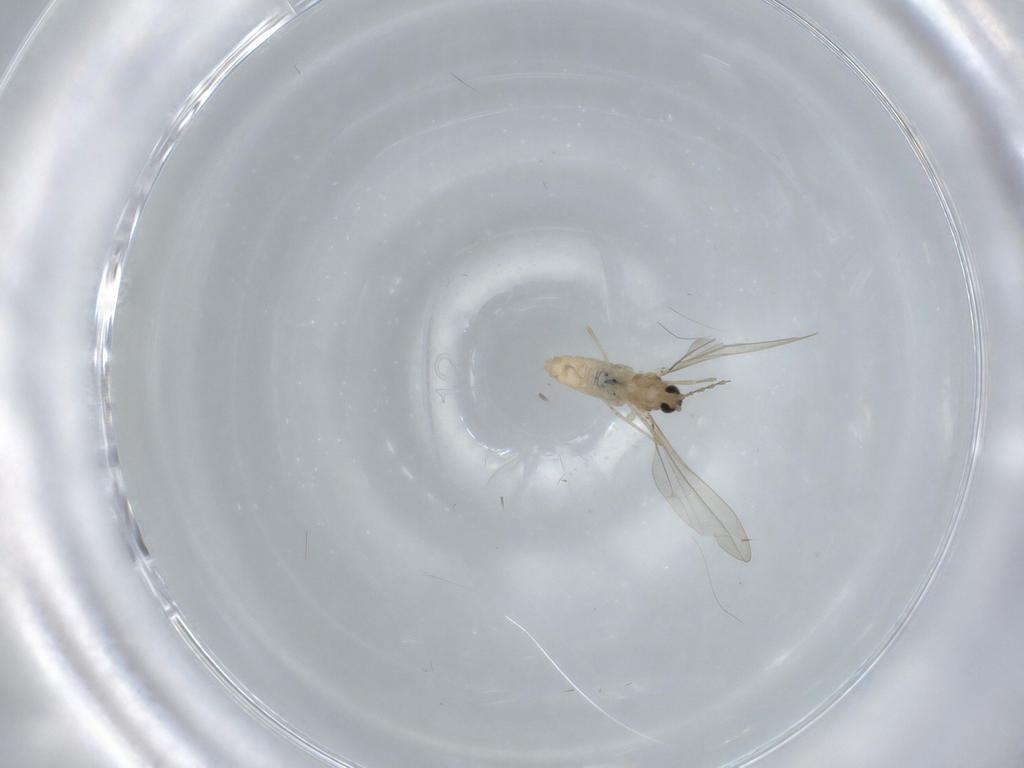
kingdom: Animalia
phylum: Arthropoda
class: Insecta
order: Diptera
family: Cecidomyiidae
